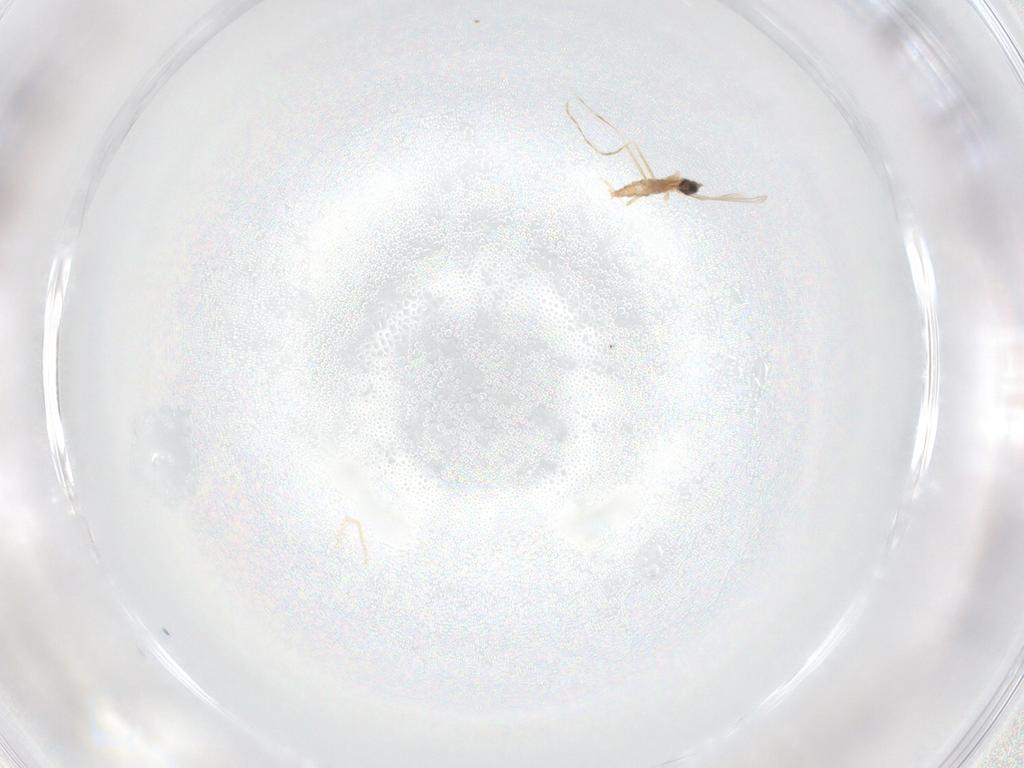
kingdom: Animalia
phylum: Arthropoda
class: Insecta
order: Diptera
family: Cecidomyiidae
